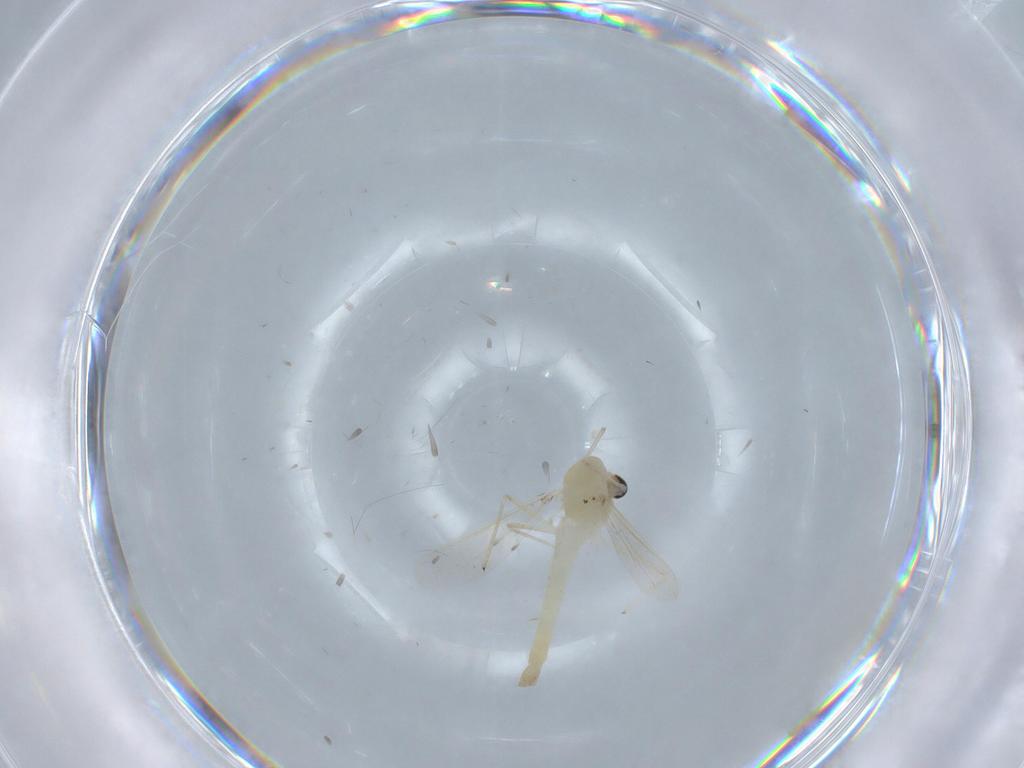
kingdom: Animalia
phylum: Arthropoda
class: Insecta
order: Diptera
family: Chironomidae
